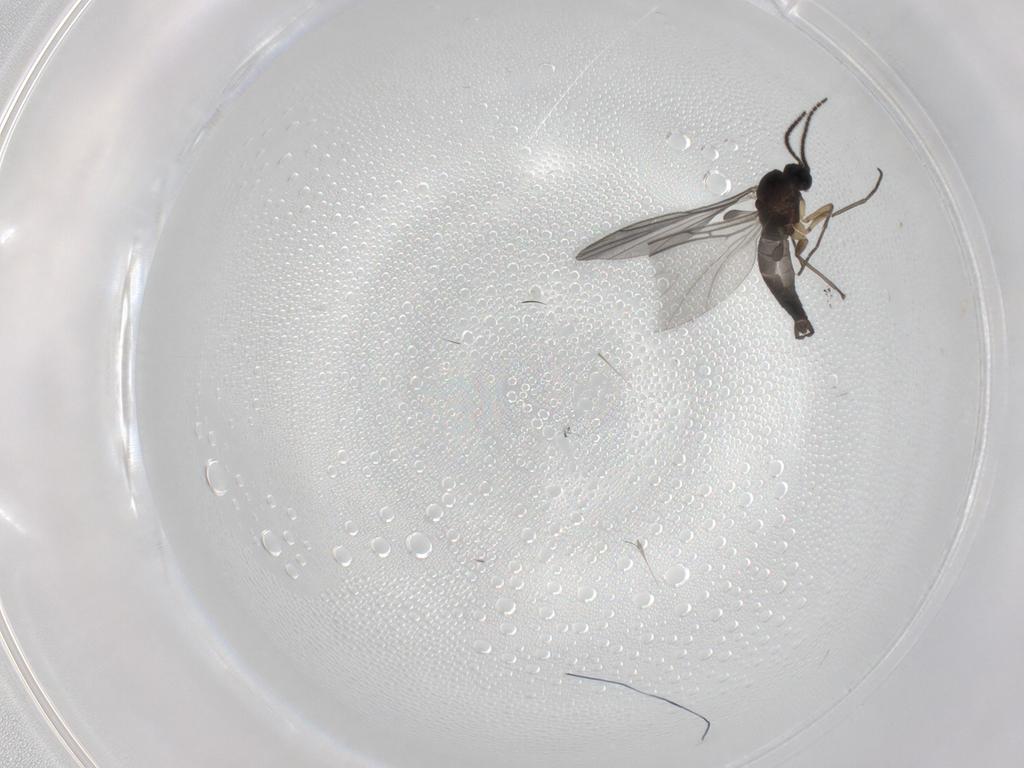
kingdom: Animalia
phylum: Arthropoda
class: Insecta
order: Diptera
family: Sciaridae
